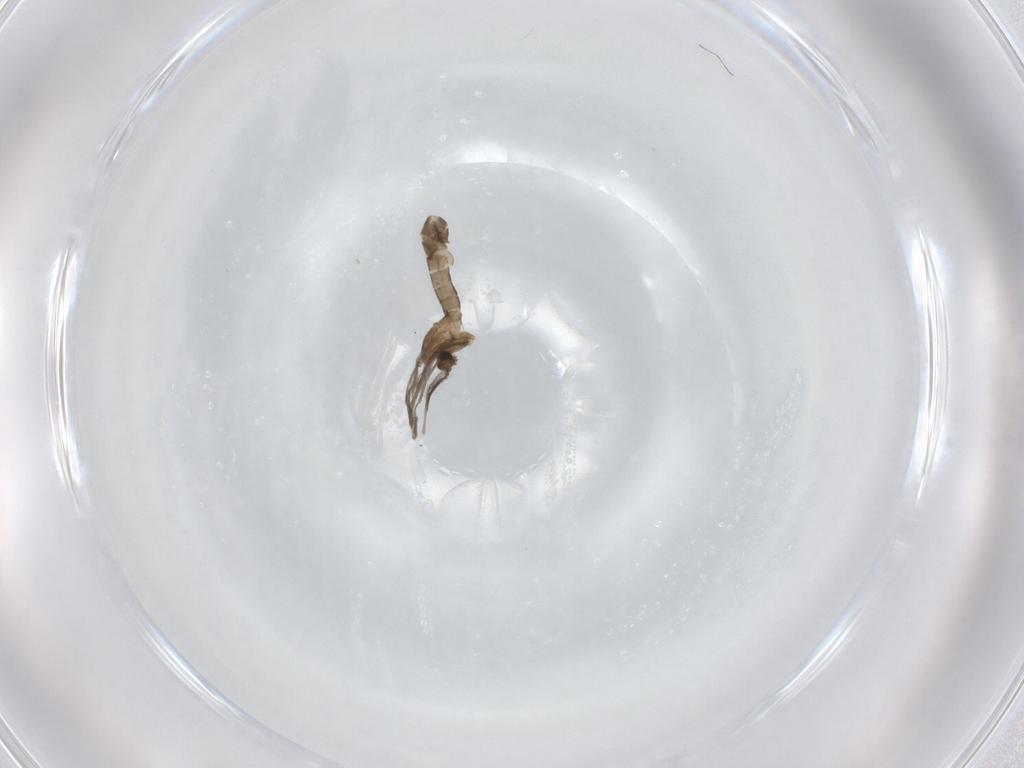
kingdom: Animalia
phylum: Arthropoda
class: Insecta
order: Diptera
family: Chironomidae
